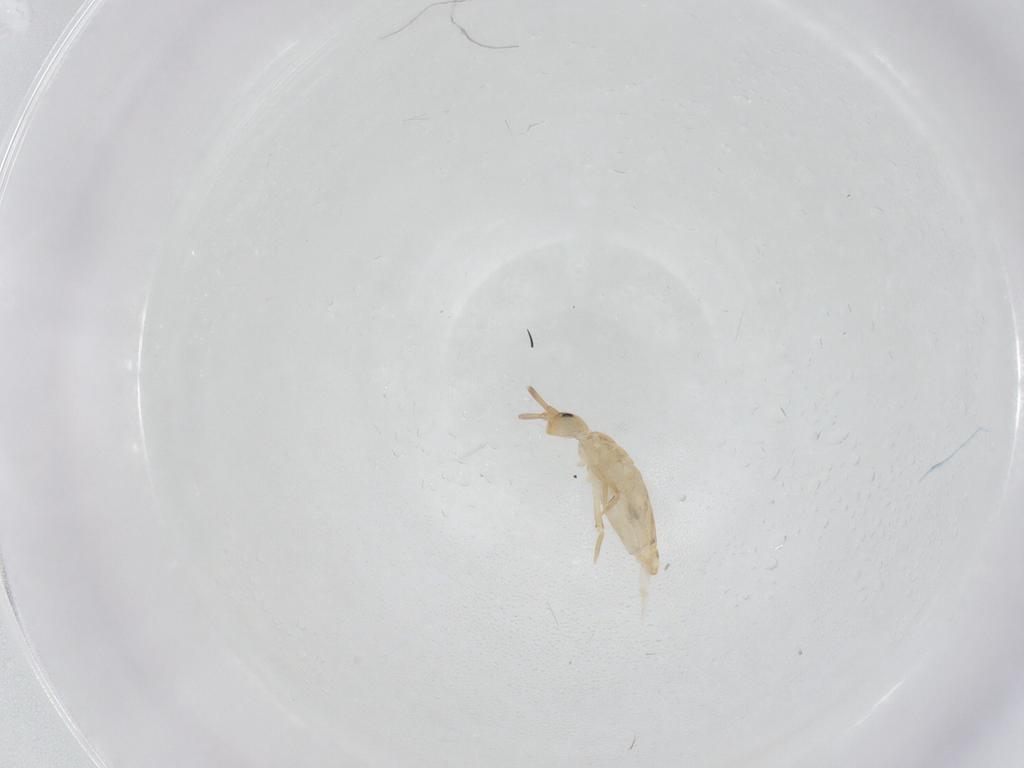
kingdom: Animalia
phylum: Arthropoda
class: Collembola
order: Entomobryomorpha
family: Entomobryidae
